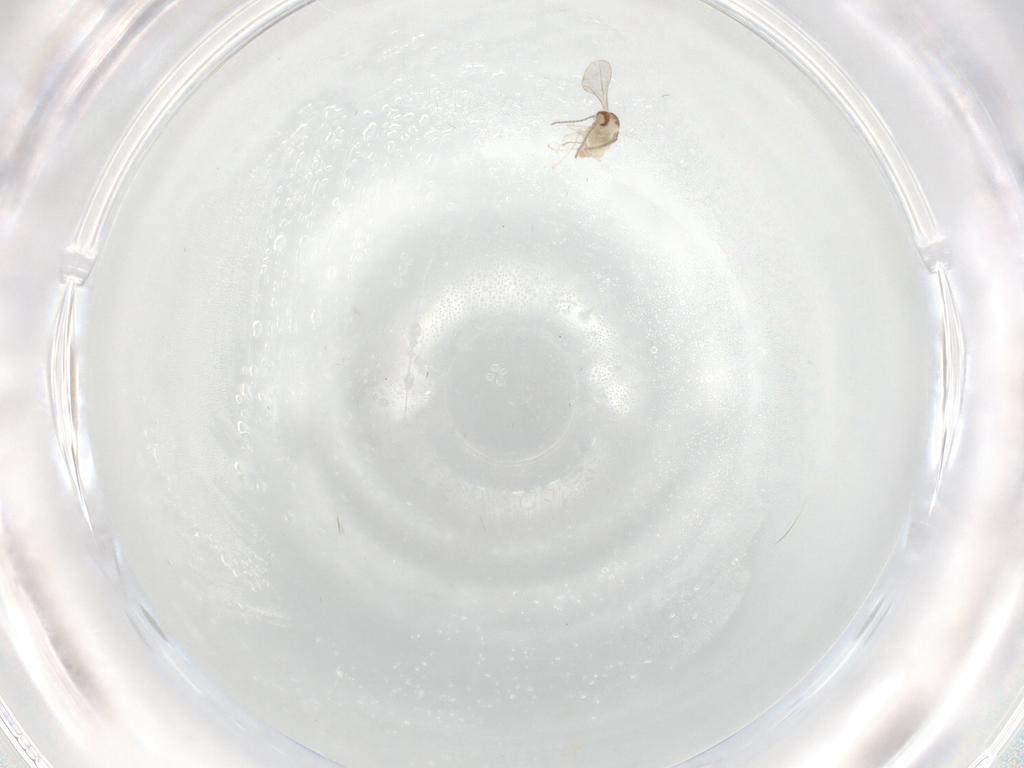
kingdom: Animalia
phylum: Arthropoda
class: Insecta
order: Diptera
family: Cecidomyiidae
